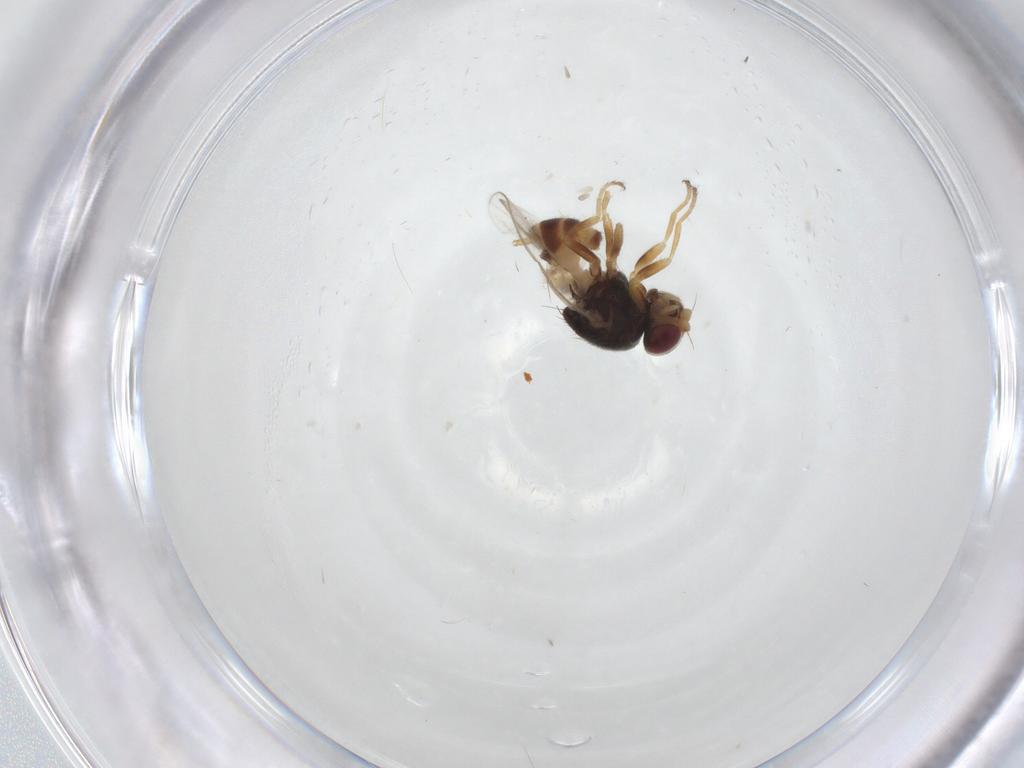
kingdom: Animalia
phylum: Arthropoda
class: Insecta
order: Diptera
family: Chloropidae
